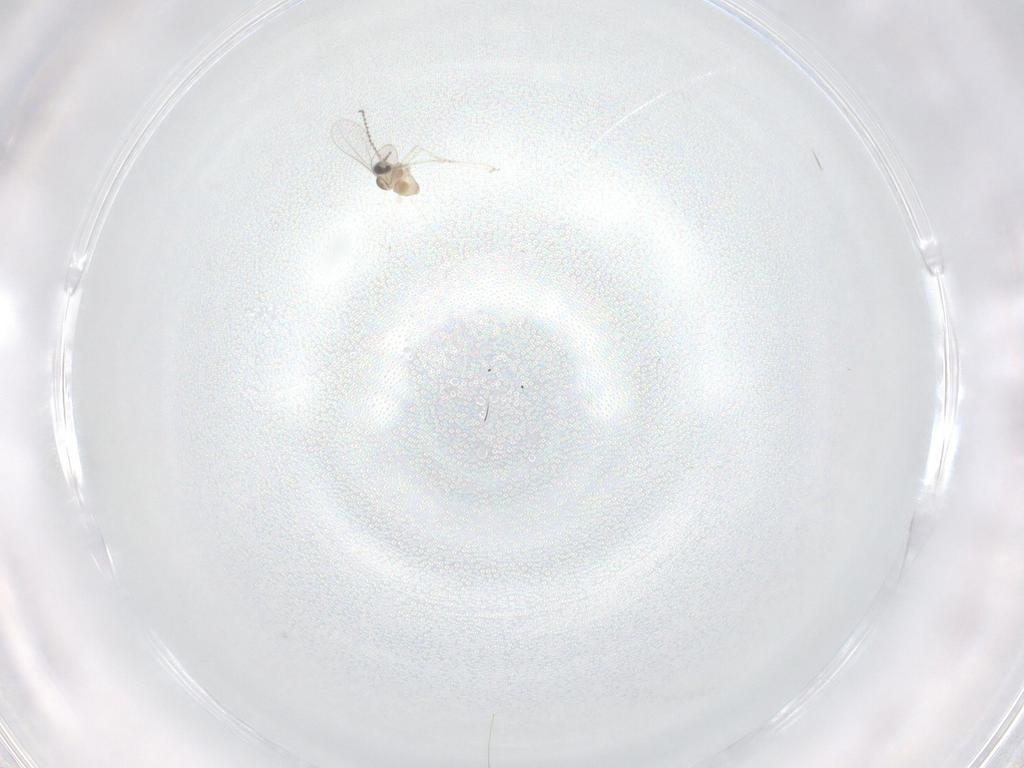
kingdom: Animalia
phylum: Arthropoda
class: Insecta
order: Diptera
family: Cecidomyiidae
